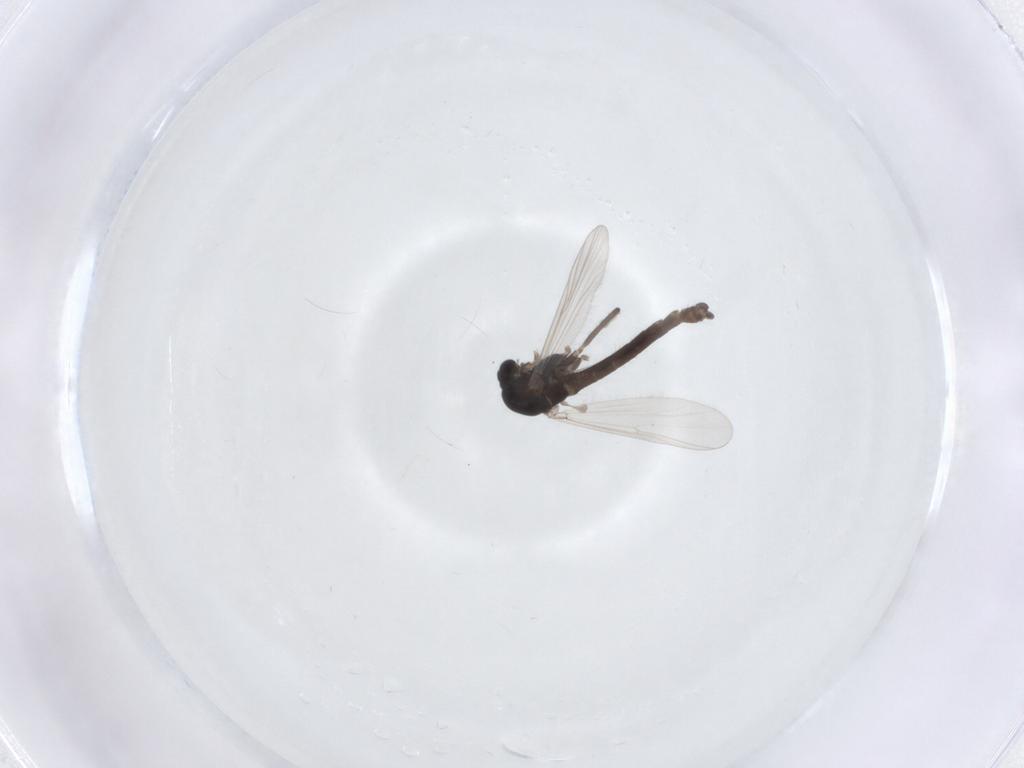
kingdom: Animalia
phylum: Arthropoda
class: Insecta
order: Diptera
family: Chironomidae
